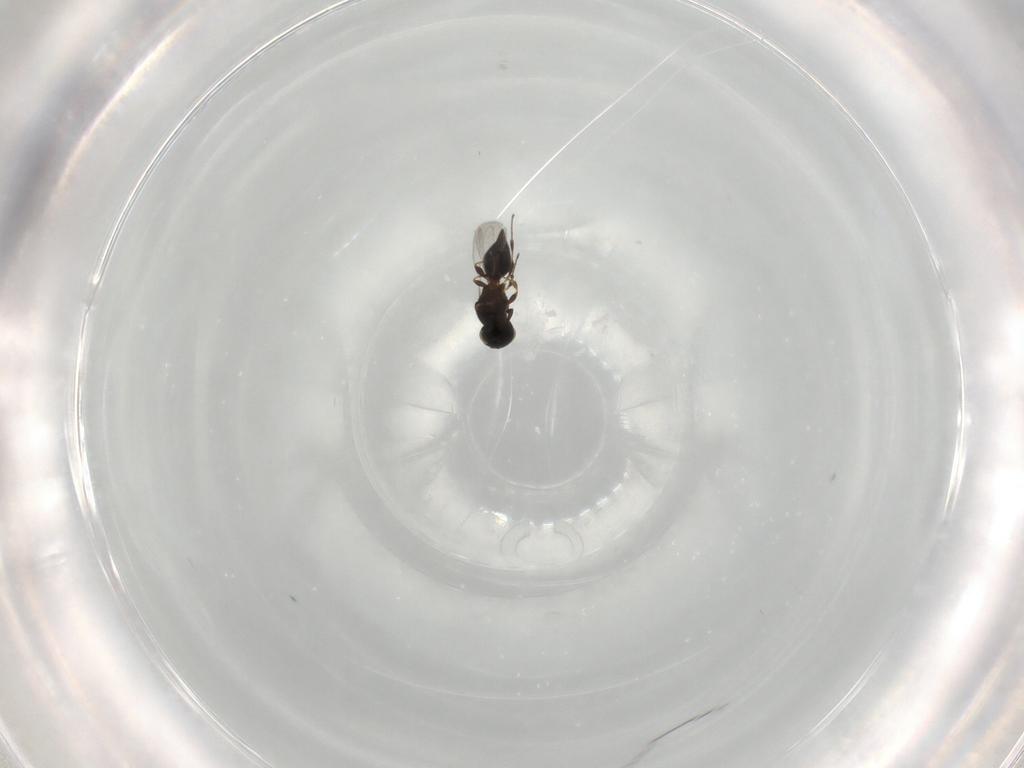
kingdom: Animalia
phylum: Arthropoda
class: Insecta
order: Hymenoptera
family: Platygastridae
